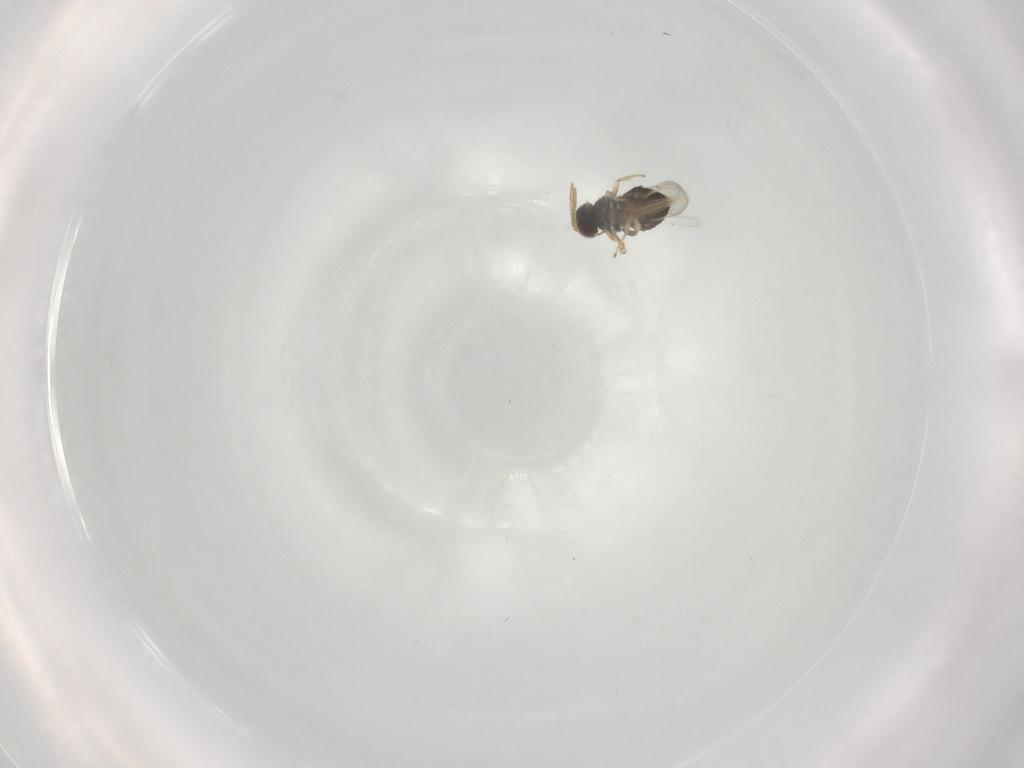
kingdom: Animalia
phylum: Arthropoda
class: Insecta
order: Hymenoptera
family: Aphelinidae
